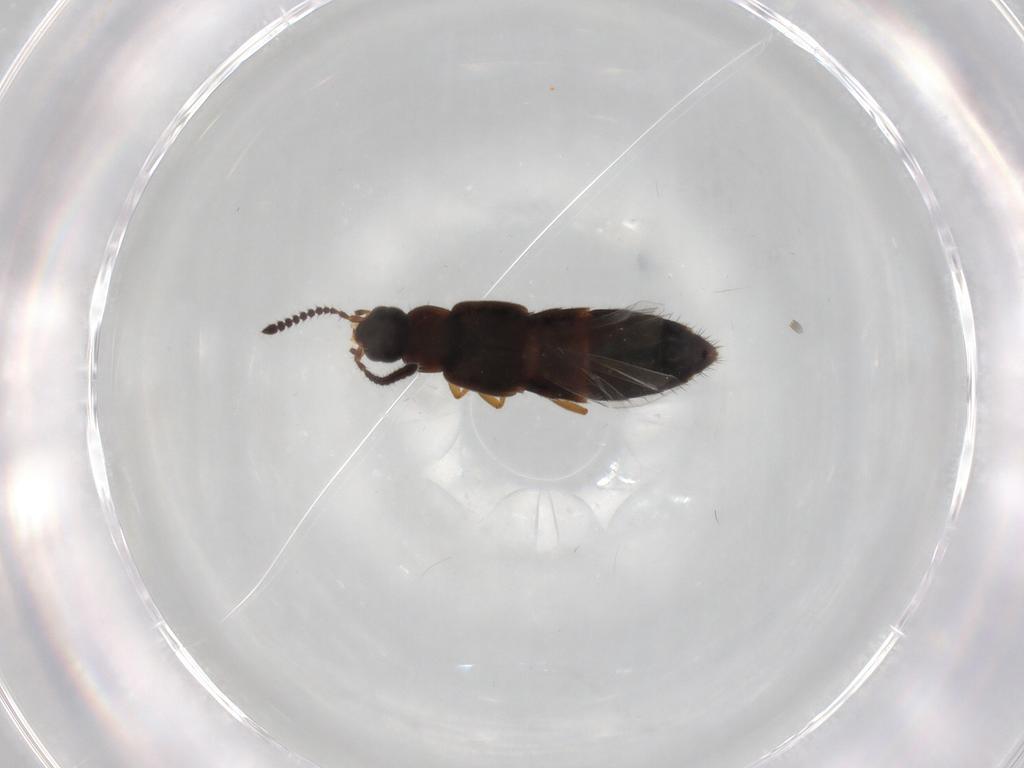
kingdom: Animalia
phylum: Arthropoda
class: Insecta
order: Coleoptera
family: Staphylinidae
